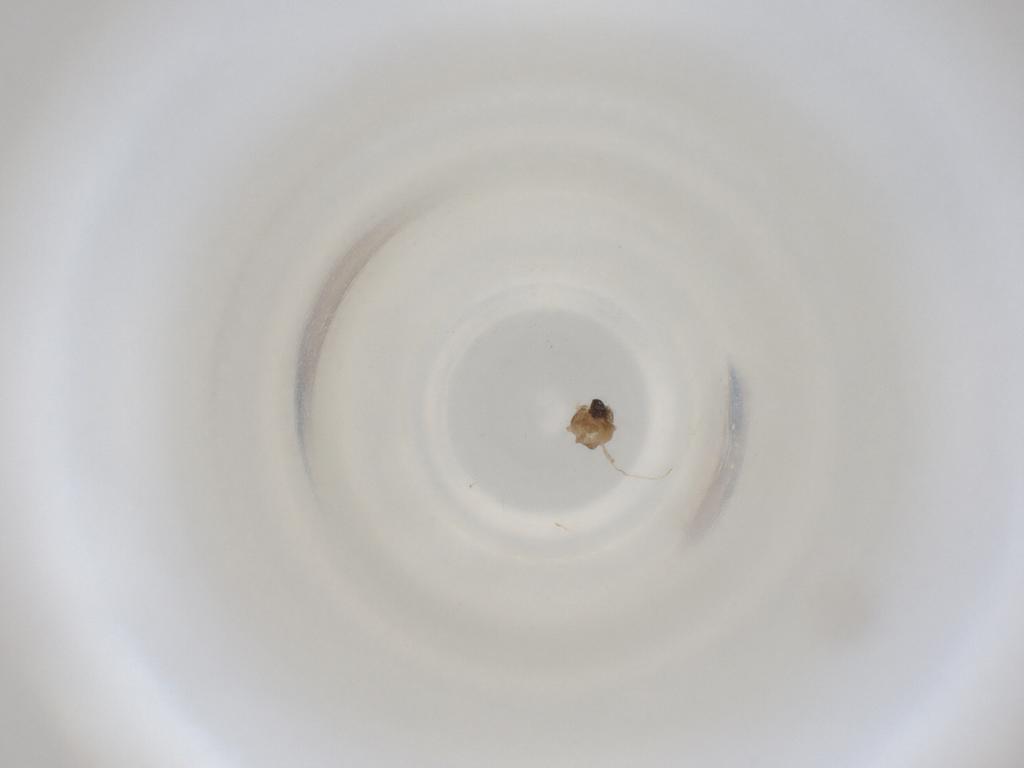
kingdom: Animalia
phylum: Arthropoda
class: Insecta
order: Diptera
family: Cecidomyiidae
